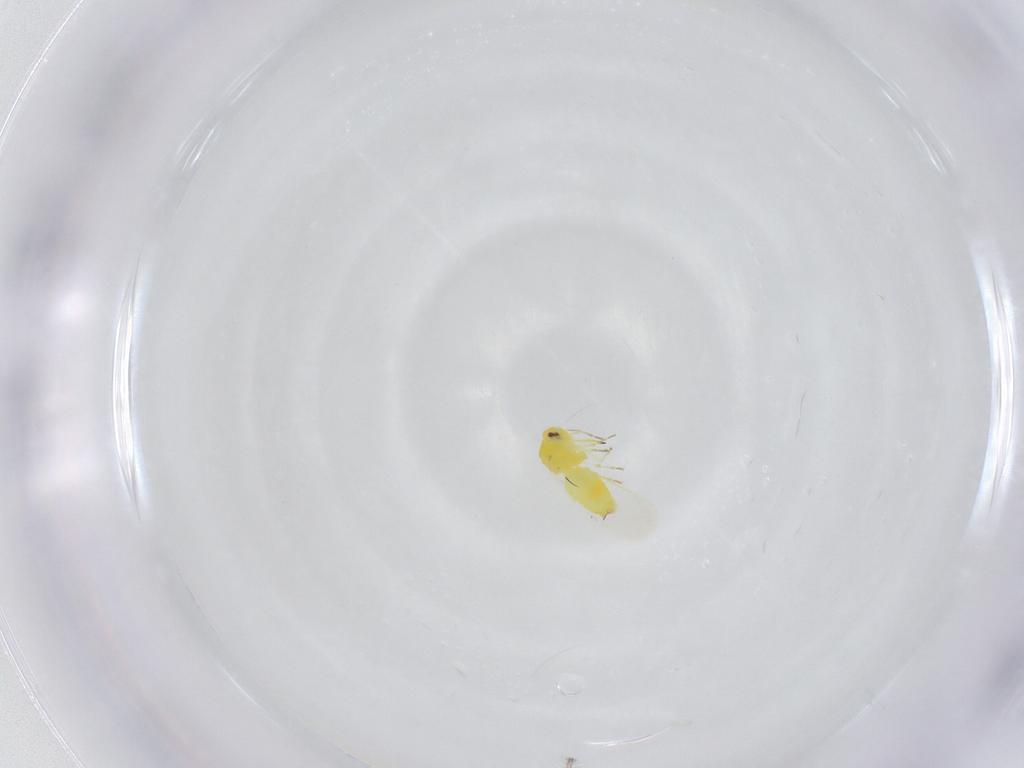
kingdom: Animalia
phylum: Arthropoda
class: Insecta
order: Hemiptera
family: Aleyrodidae
